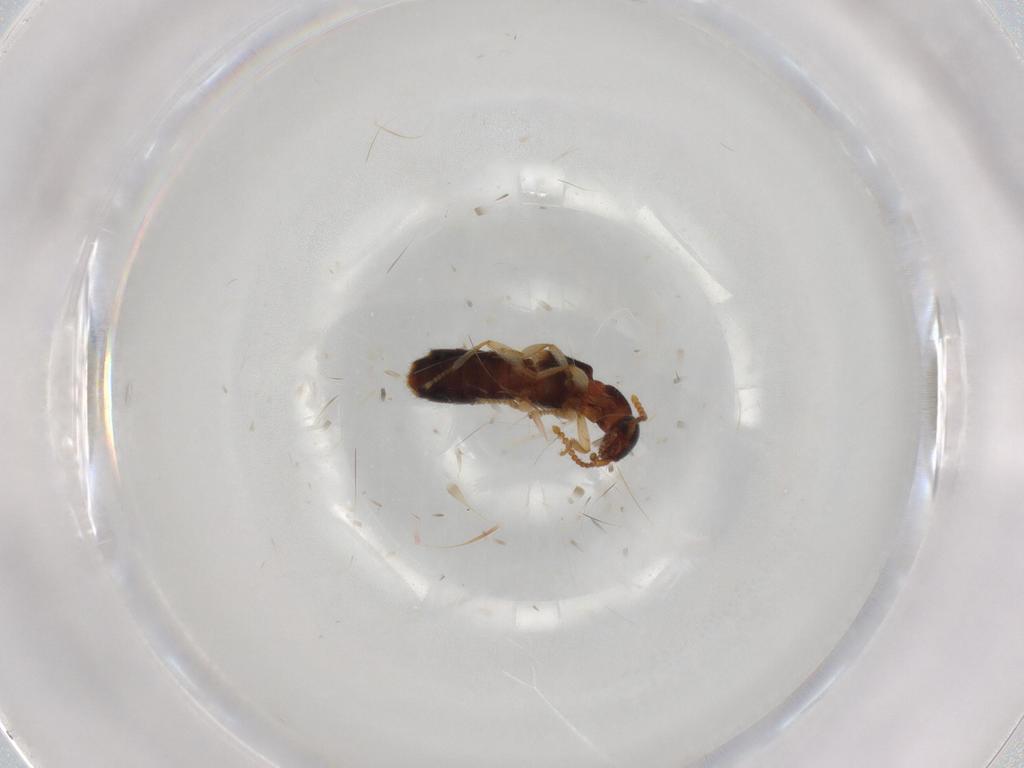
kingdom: Animalia
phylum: Arthropoda
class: Insecta
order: Coleoptera
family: Staphylinidae
